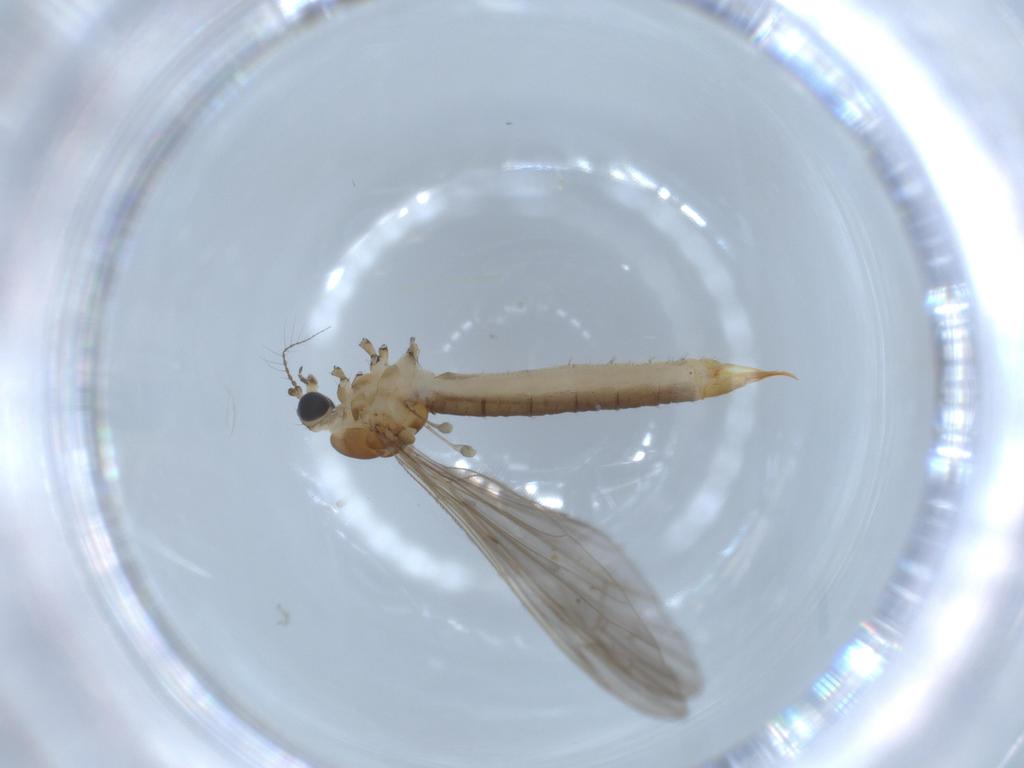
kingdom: Animalia
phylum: Arthropoda
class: Insecta
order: Diptera
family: Limoniidae
